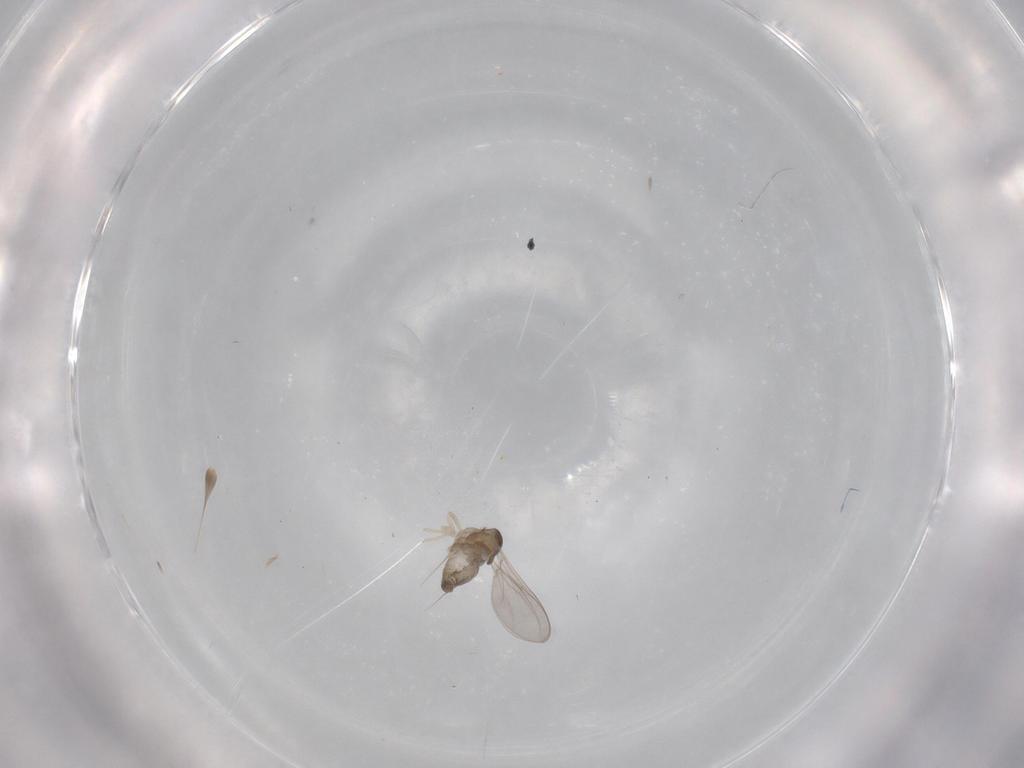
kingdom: Animalia
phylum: Arthropoda
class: Insecta
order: Diptera
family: Cecidomyiidae
